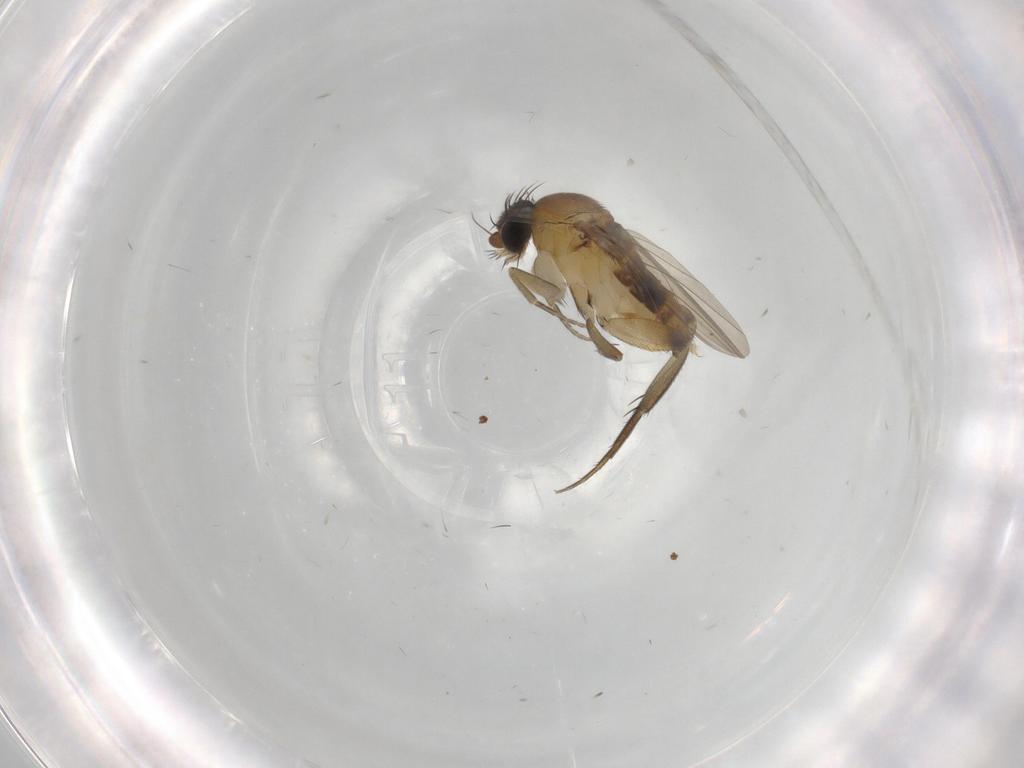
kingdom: Animalia
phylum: Arthropoda
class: Insecta
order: Diptera
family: Phoridae
